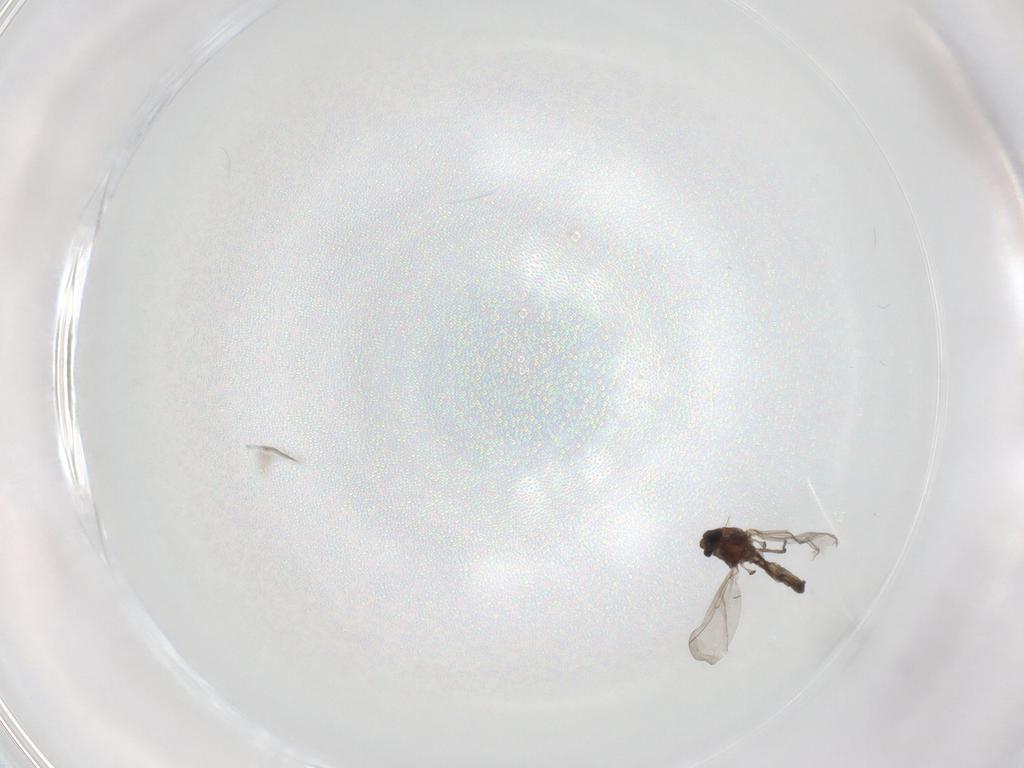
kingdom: Animalia
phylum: Arthropoda
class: Insecta
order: Diptera
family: Chironomidae
